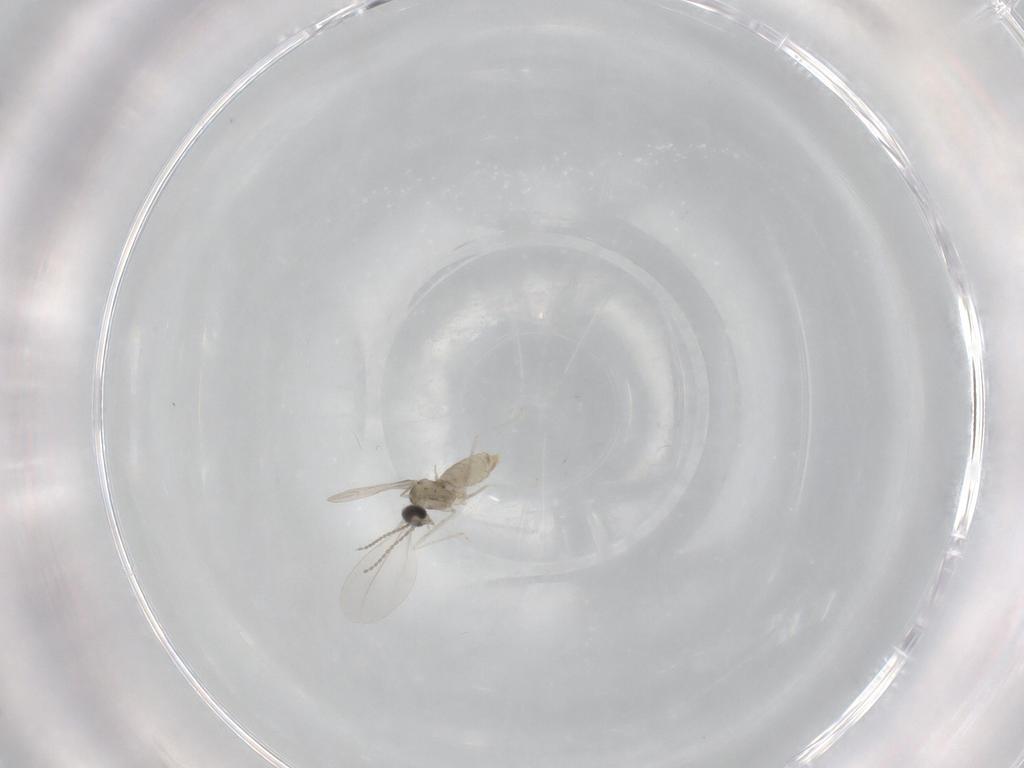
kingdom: Animalia
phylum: Arthropoda
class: Insecta
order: Diptera
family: Cecidomyiidae
